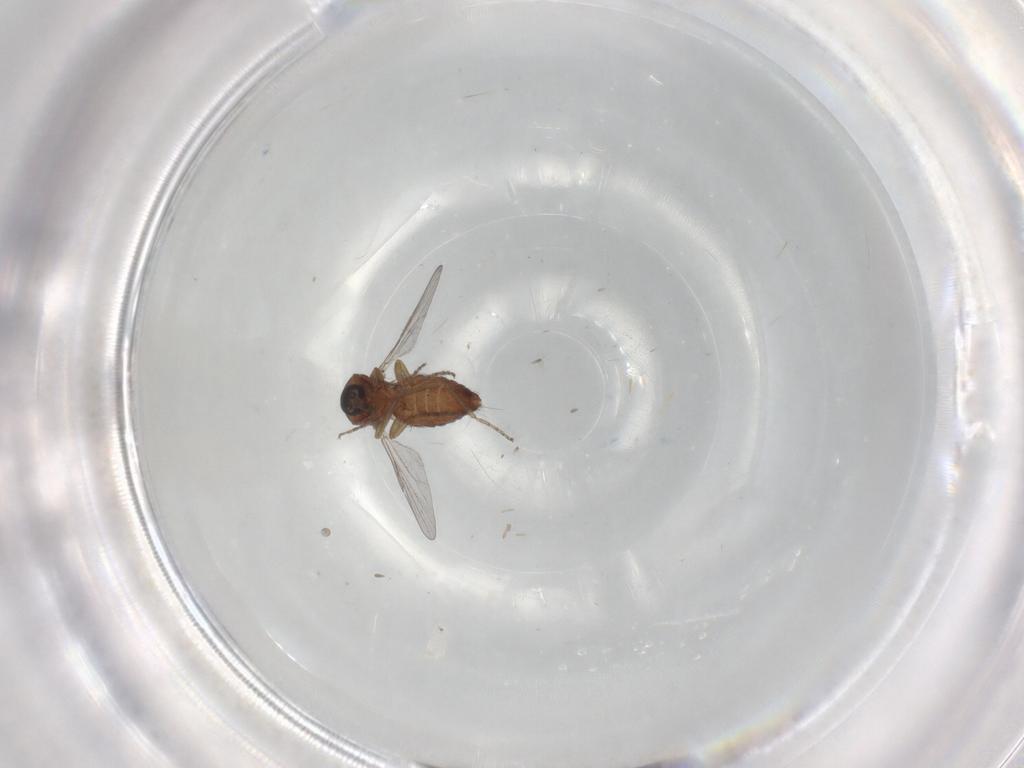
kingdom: Animalia
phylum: Arthropoda
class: Insecta
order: Diptera
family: Ceratopogonidae
